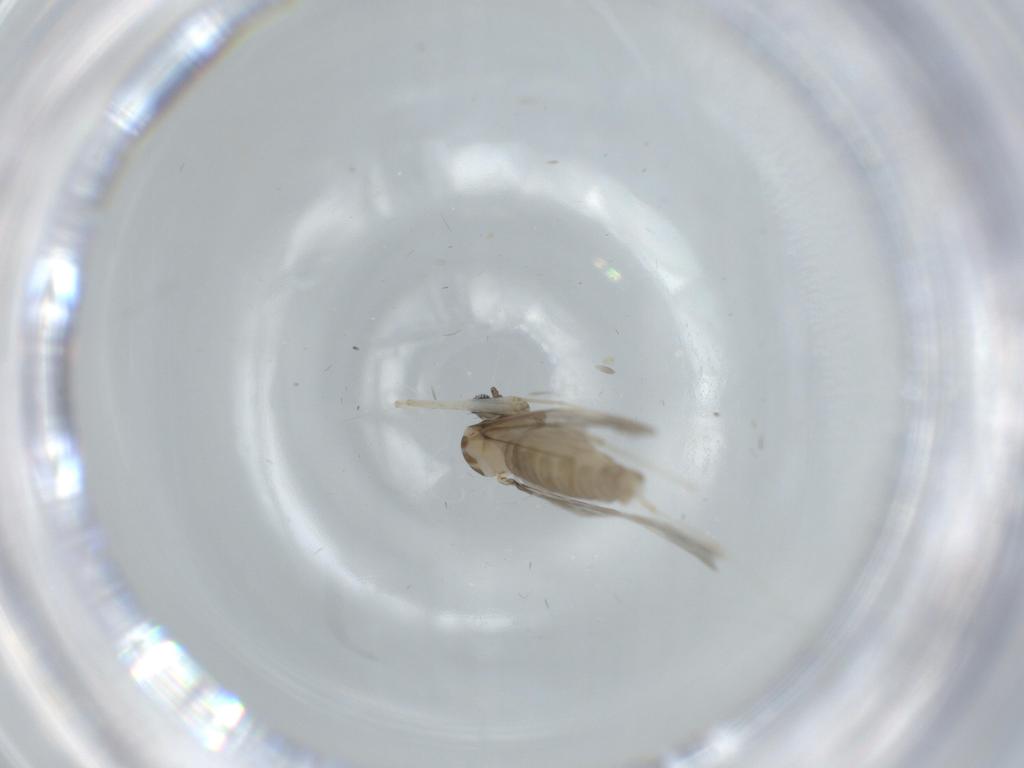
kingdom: Animalia
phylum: Arthropoda
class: Insecta
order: Diptera
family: Cecidomyiidae
